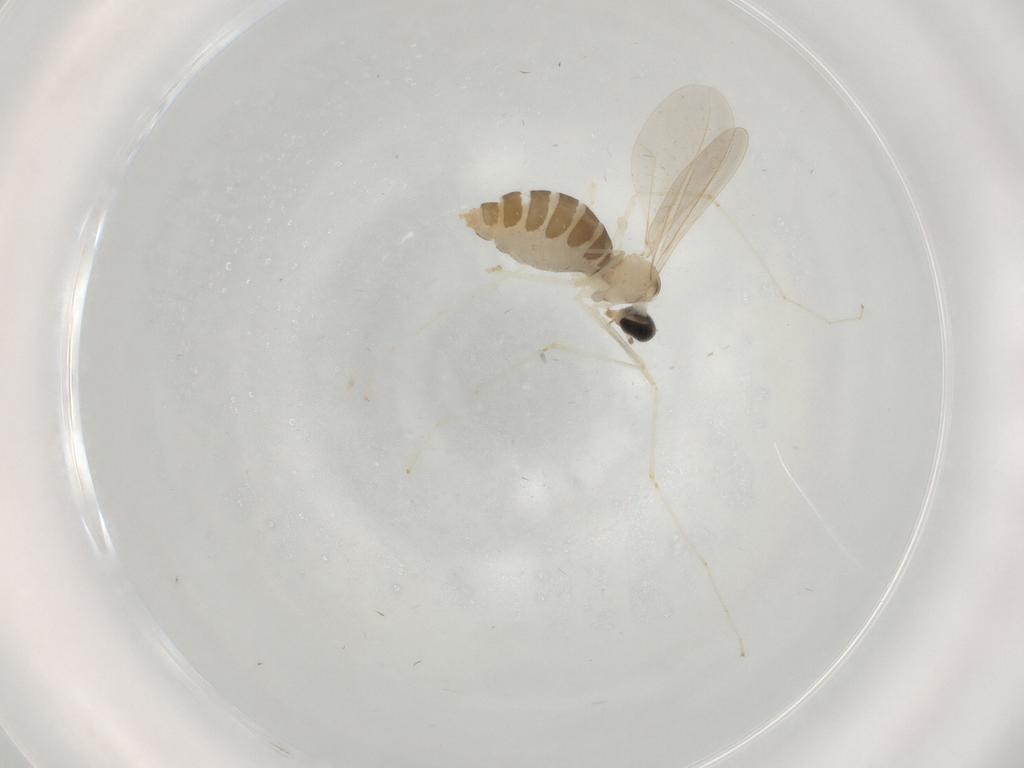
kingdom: Animalia
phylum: Arthropoda
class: Insecta
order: Diptera
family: Cecidomyiidae
